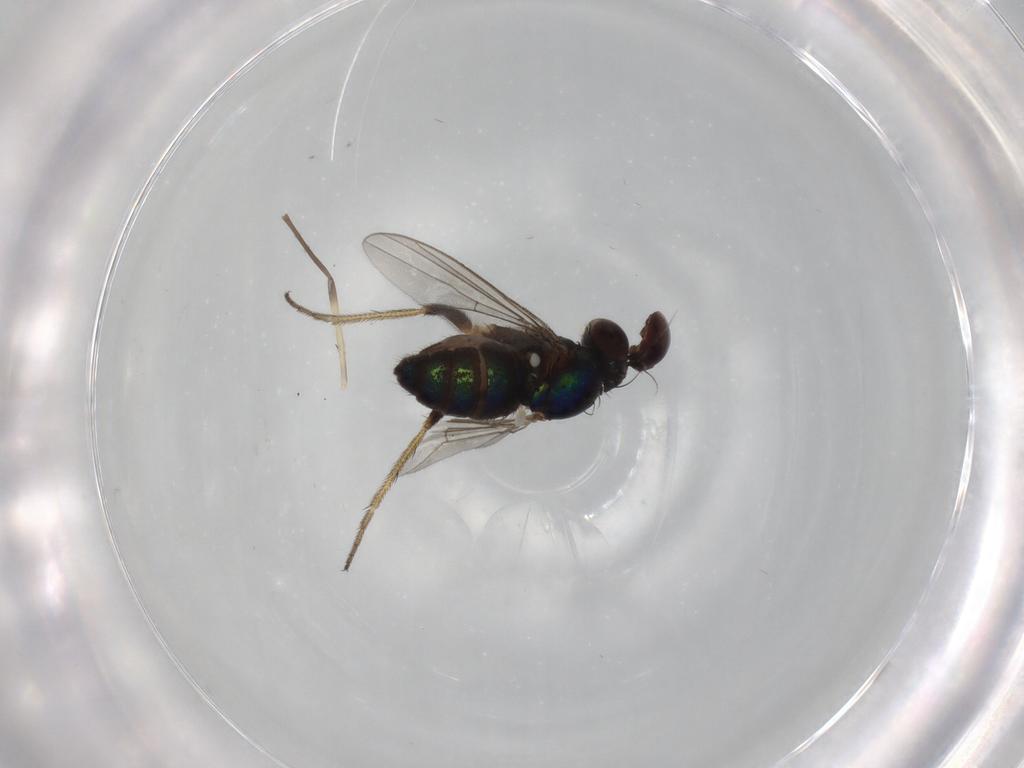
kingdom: Animalia
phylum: Arthropoda
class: Insecta
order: Diptera
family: Chironomidae
